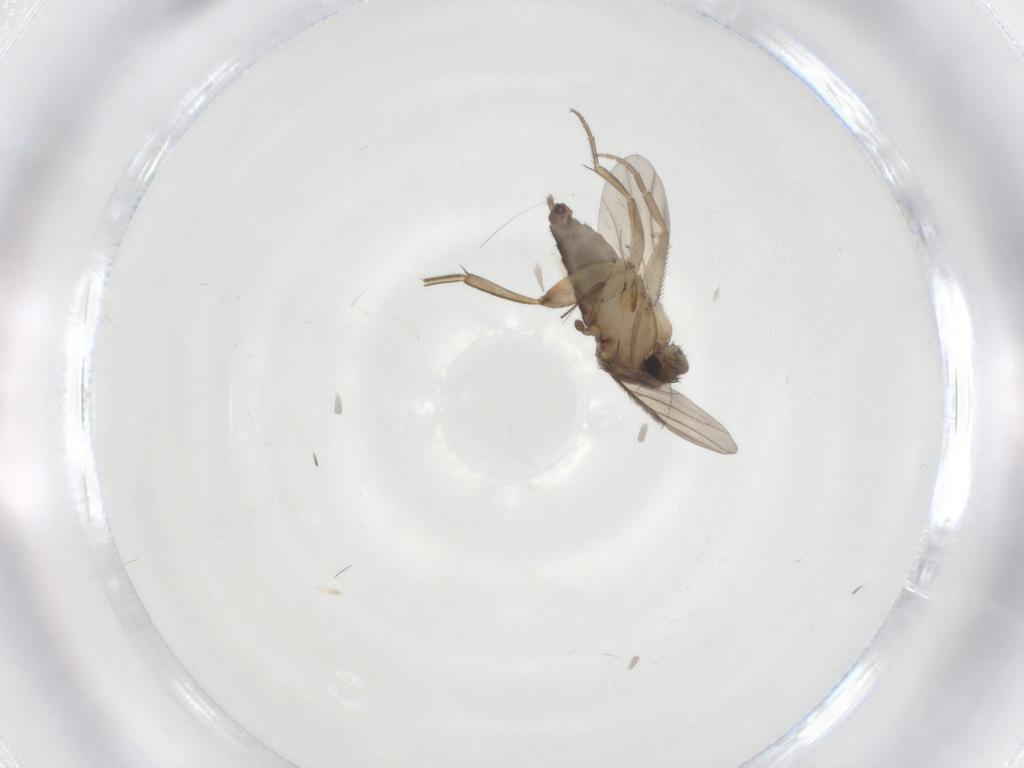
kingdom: Animalia
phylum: Arthropoda
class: Insecta
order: Diptera
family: Phoridae
